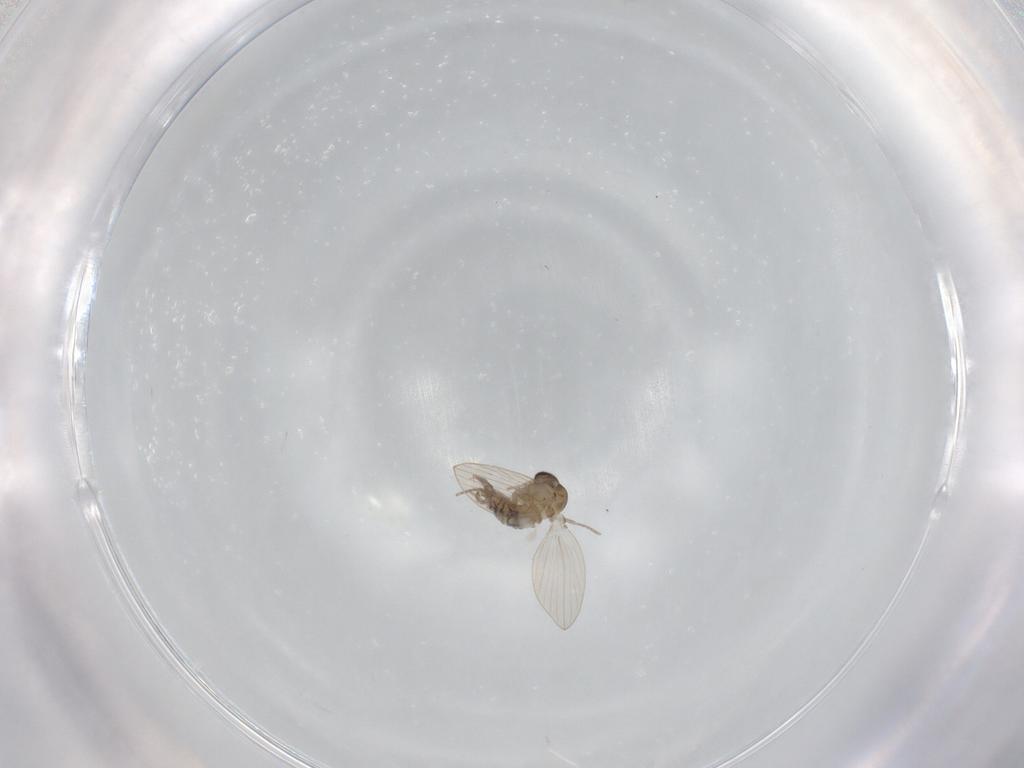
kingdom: Animalia
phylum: Arthropoda
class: Insecta
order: Diptera
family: Psychodidae
